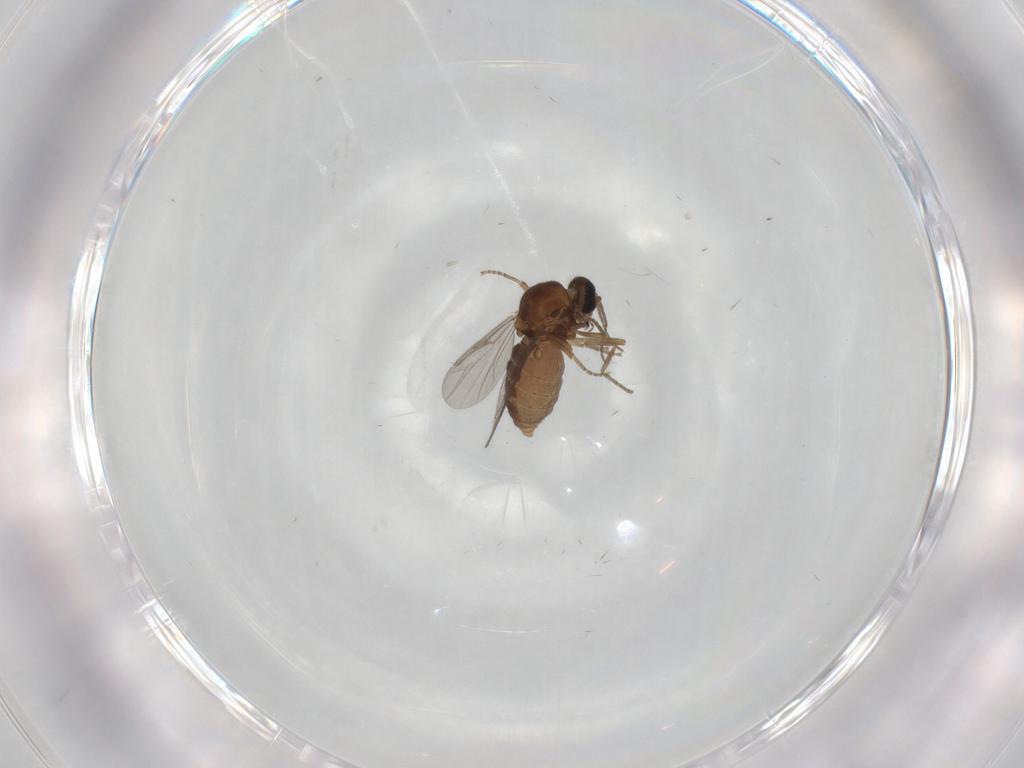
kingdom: Animalia
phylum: Arthropoda
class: Insecta
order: Diptera
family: Ceratopogonidae
